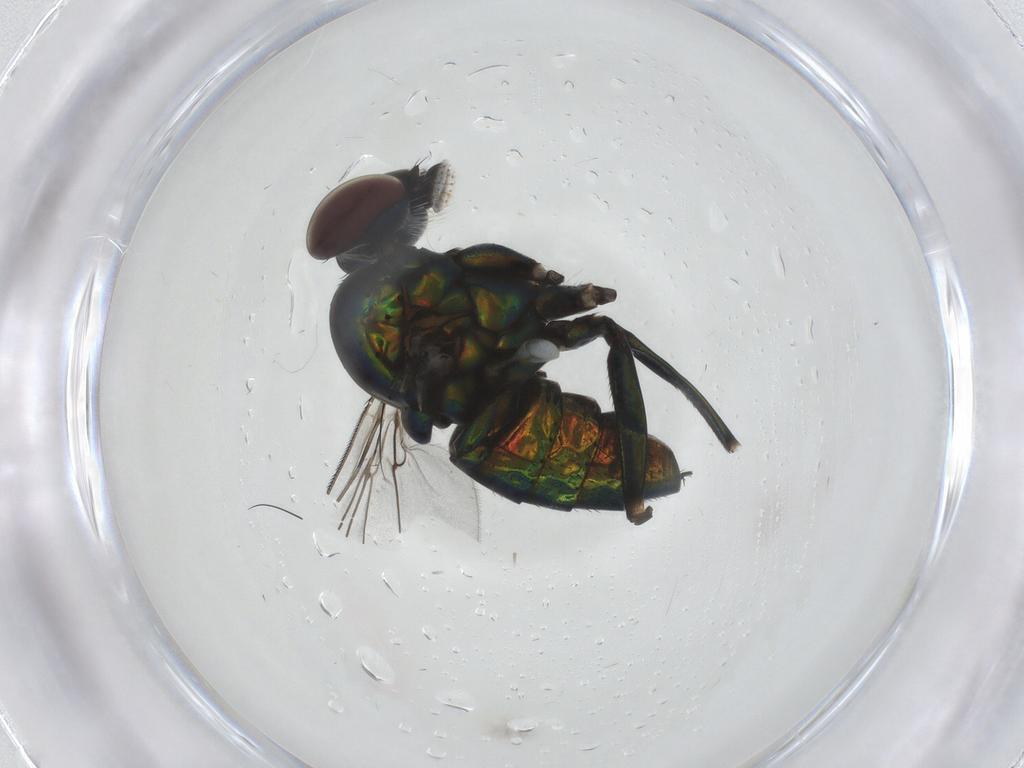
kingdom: Animalia
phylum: Arthropoda
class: Insecta
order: Diptera
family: Dolichopodidae
